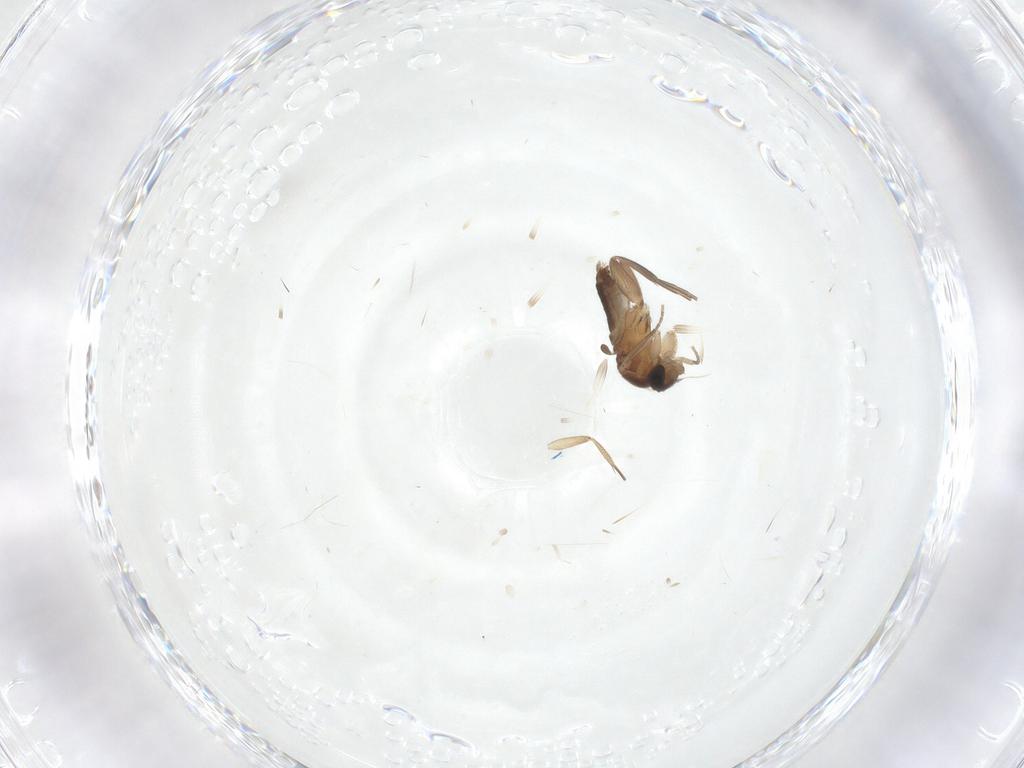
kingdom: Animalia
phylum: Arthropoda
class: Insecta
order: Diptera
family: Phoridae
